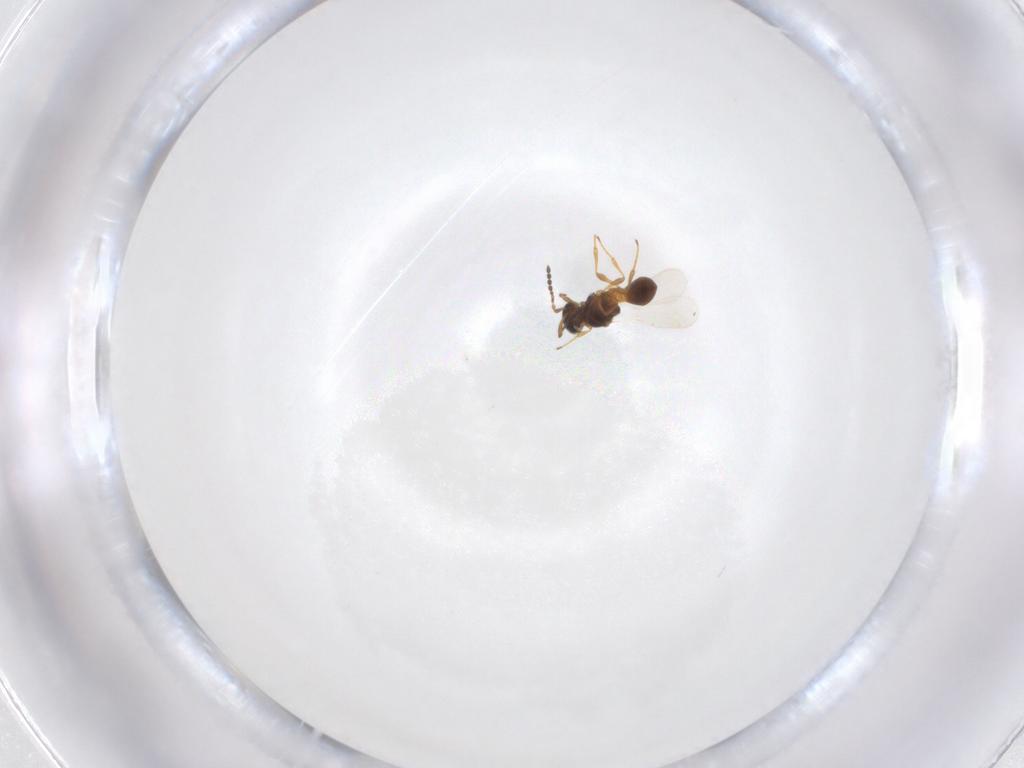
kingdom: Animalia
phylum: Arthropoda
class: Insecta
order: Hymenoptera
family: Platygastridae
